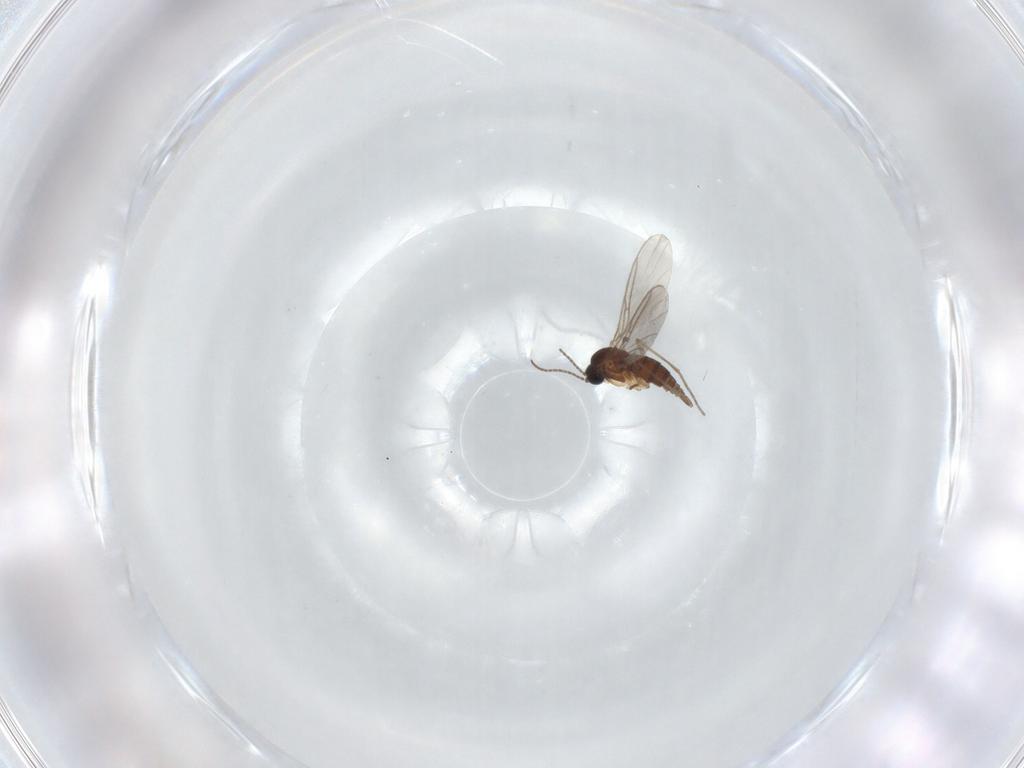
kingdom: Animalia
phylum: Arthropoda
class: Insecta
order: Diptera
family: Sciaridae
